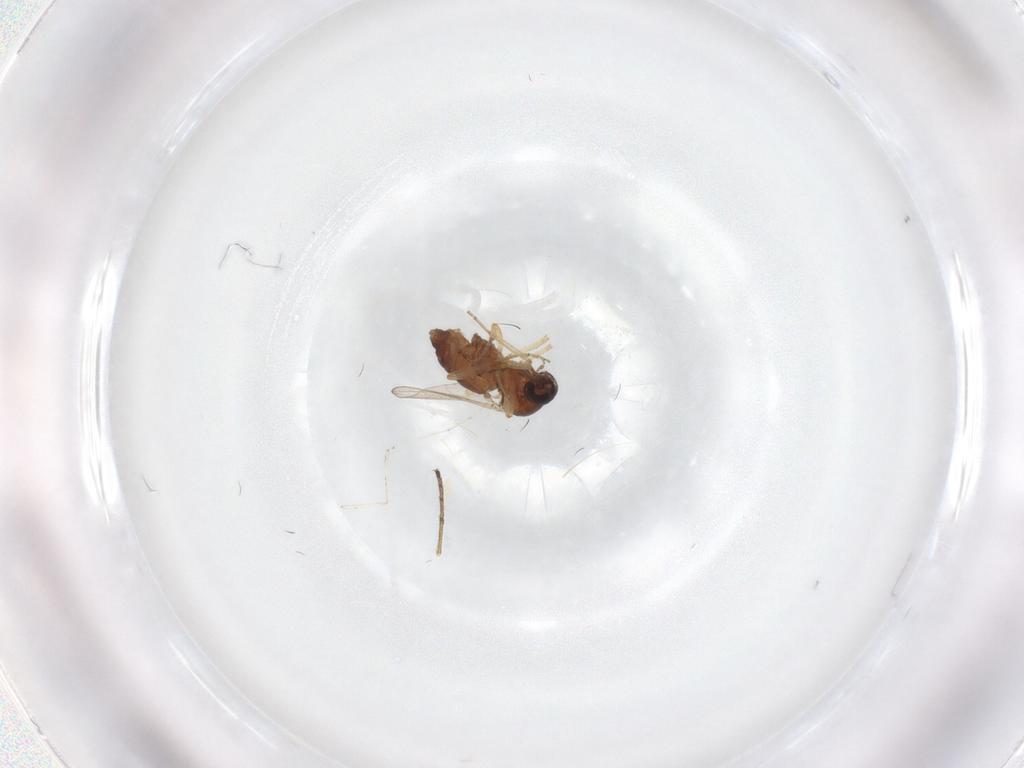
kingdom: Animalia
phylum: Arthropoda
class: Insecta
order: Diptera
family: Ceratopogonidae
